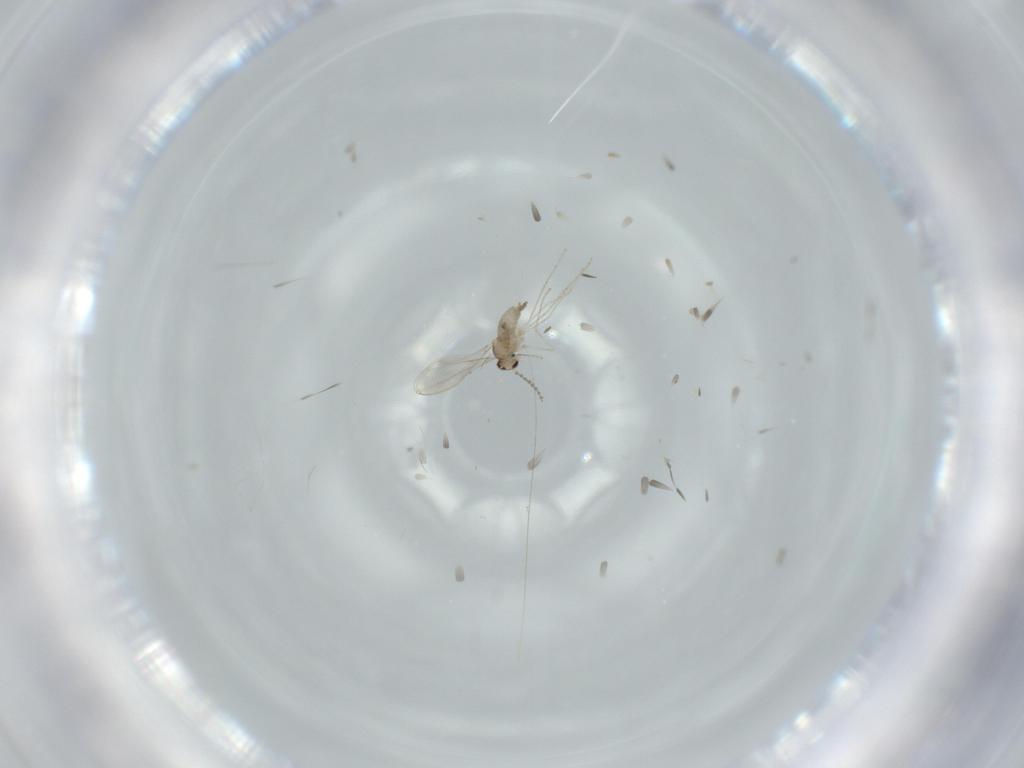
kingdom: Animalia
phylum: Arthropoda
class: Insecta
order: Diptera
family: Cecidomyiidae
